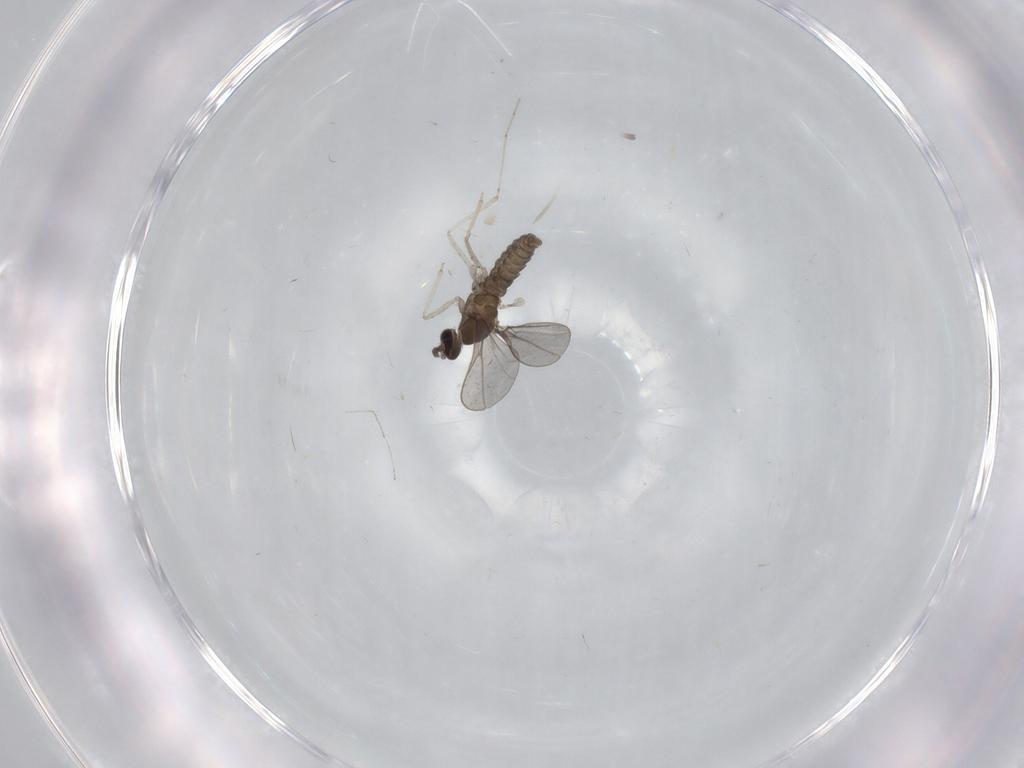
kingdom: Animalia
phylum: Arthropoda
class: Insecta
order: Diptera
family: Cecidomyiidae
